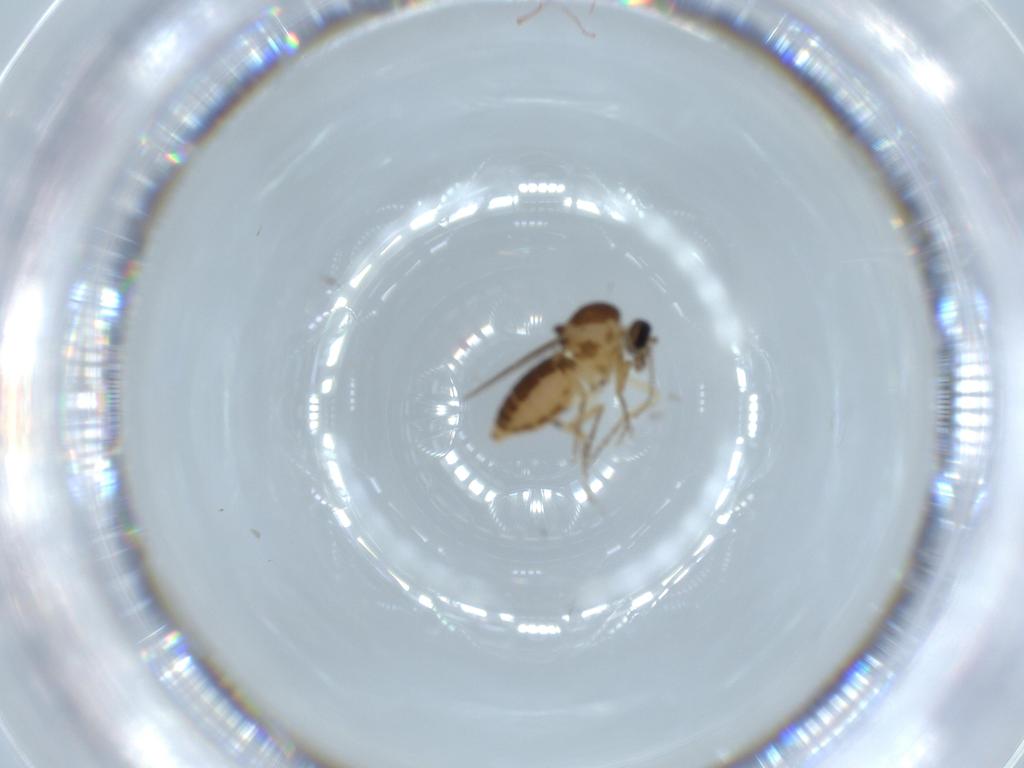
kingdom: Animalia
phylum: Arthropoda
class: Insecta
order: Diptera
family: Ceratopogonidae
